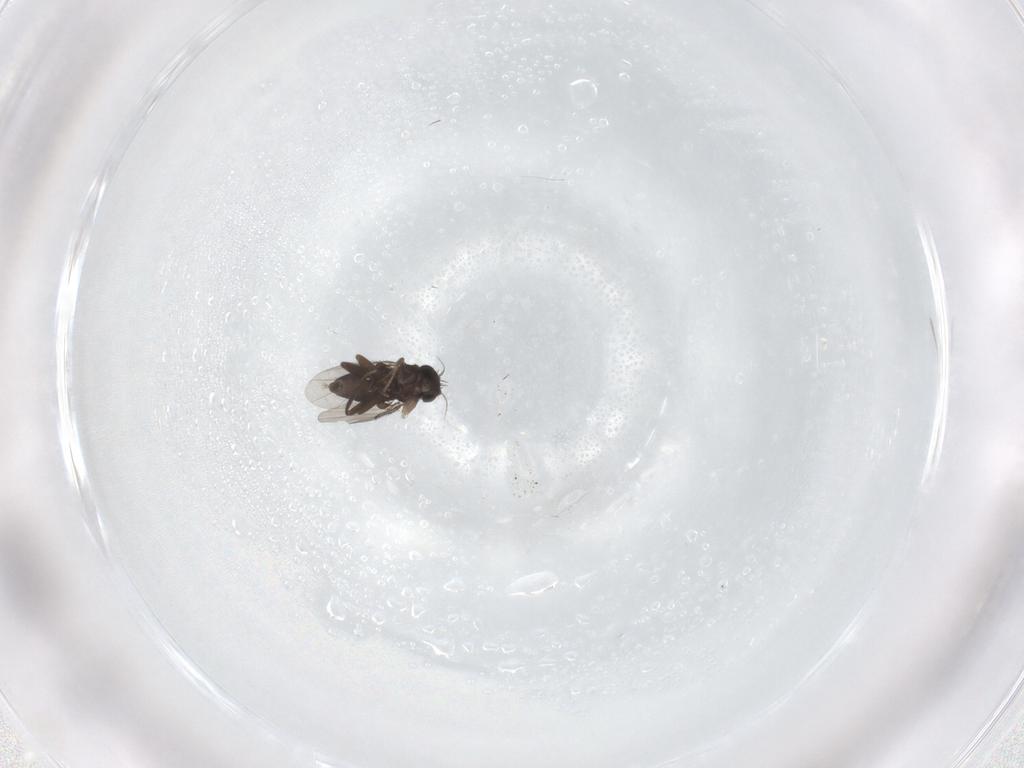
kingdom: Animalia
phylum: Arthropoda
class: Insecta
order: Diptera
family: Phoridae
